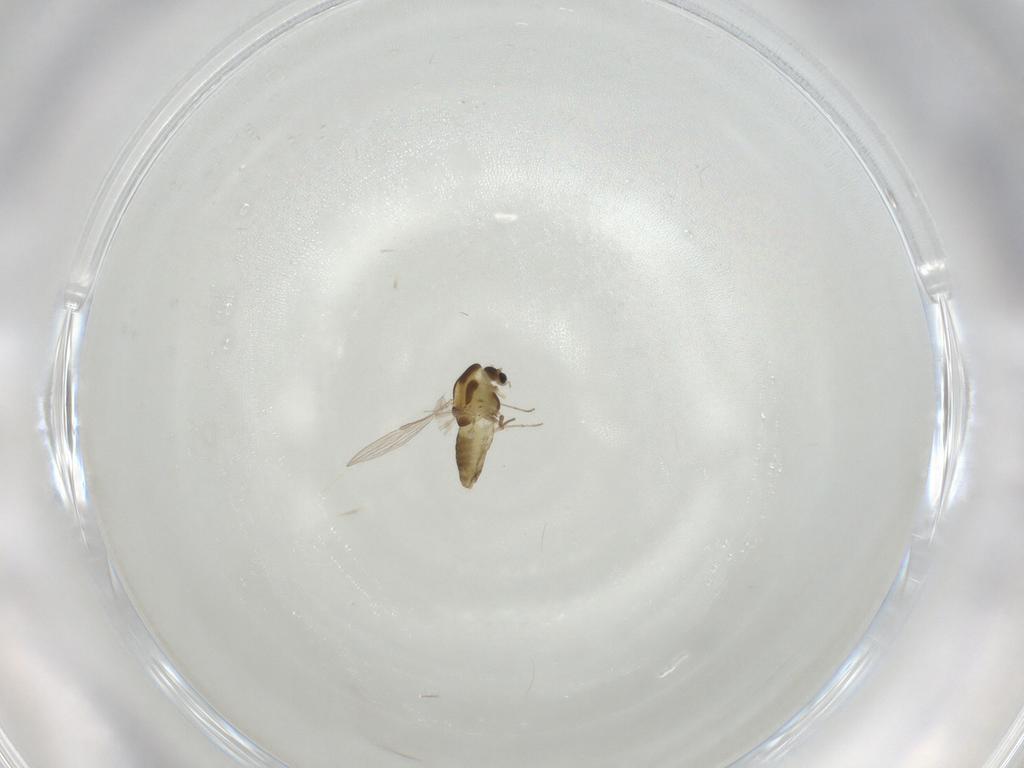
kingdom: Animalia
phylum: Arthropoda
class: Insecta
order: Diptera
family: Chironomidae
